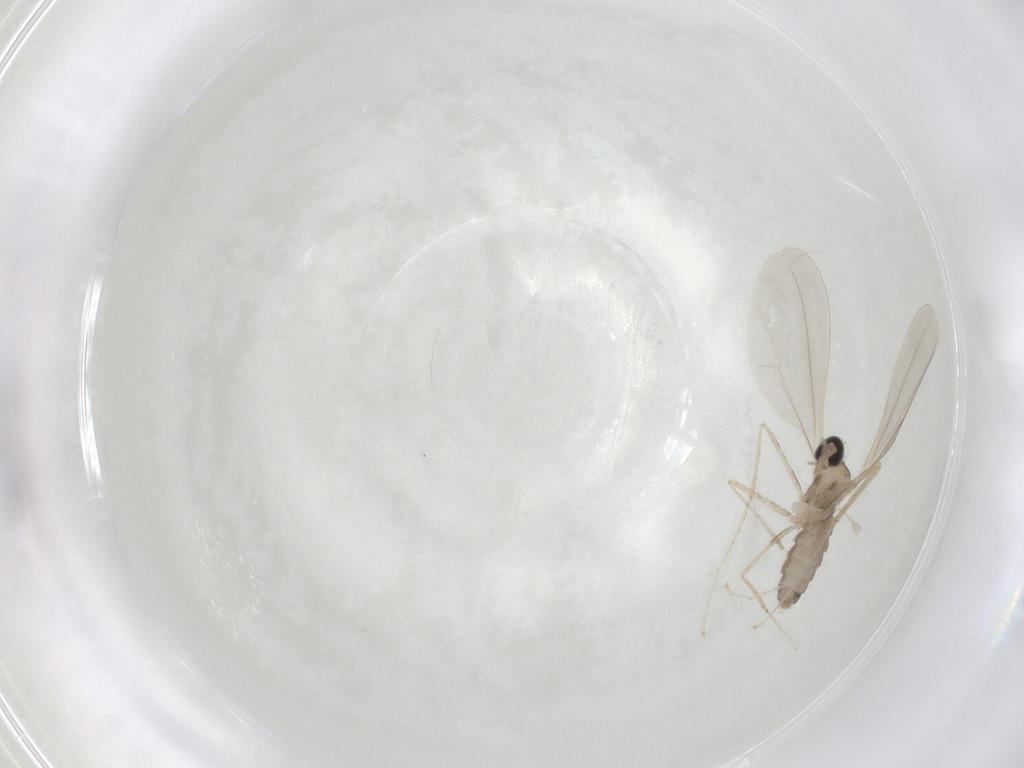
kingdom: Animalia
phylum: Arthropoda
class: Insecta
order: Diptera
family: Cecidomyiidae
